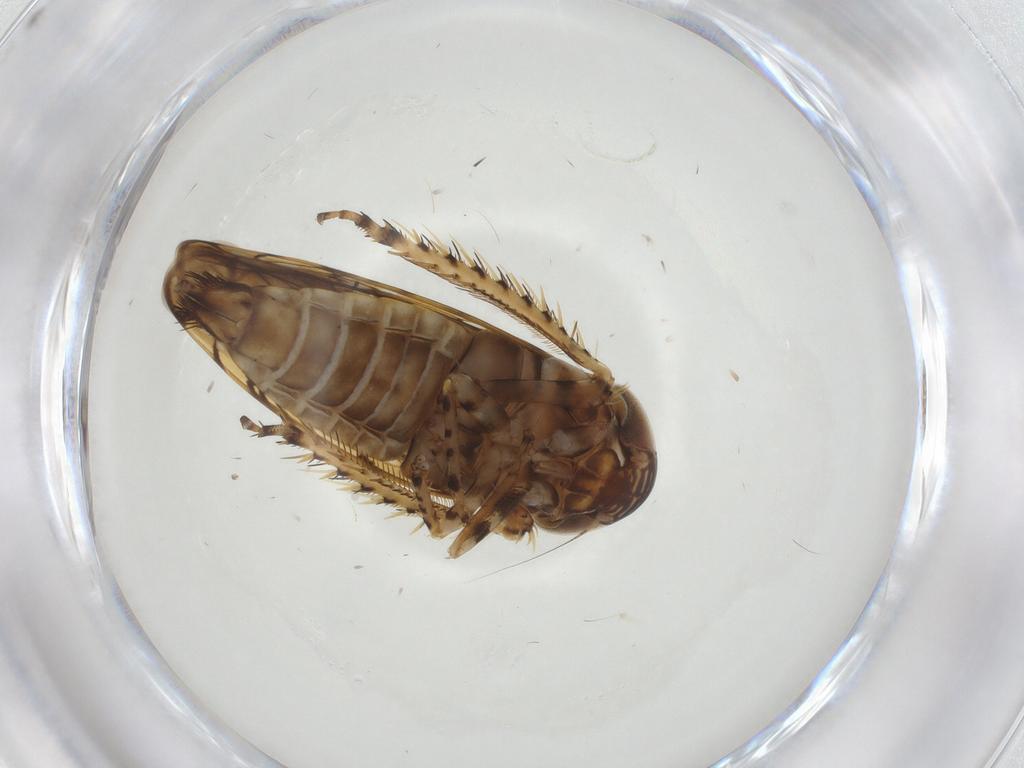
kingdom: Animalia
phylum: Arthropoda
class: Insecta
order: Hemiptera
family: Cicadellidae
